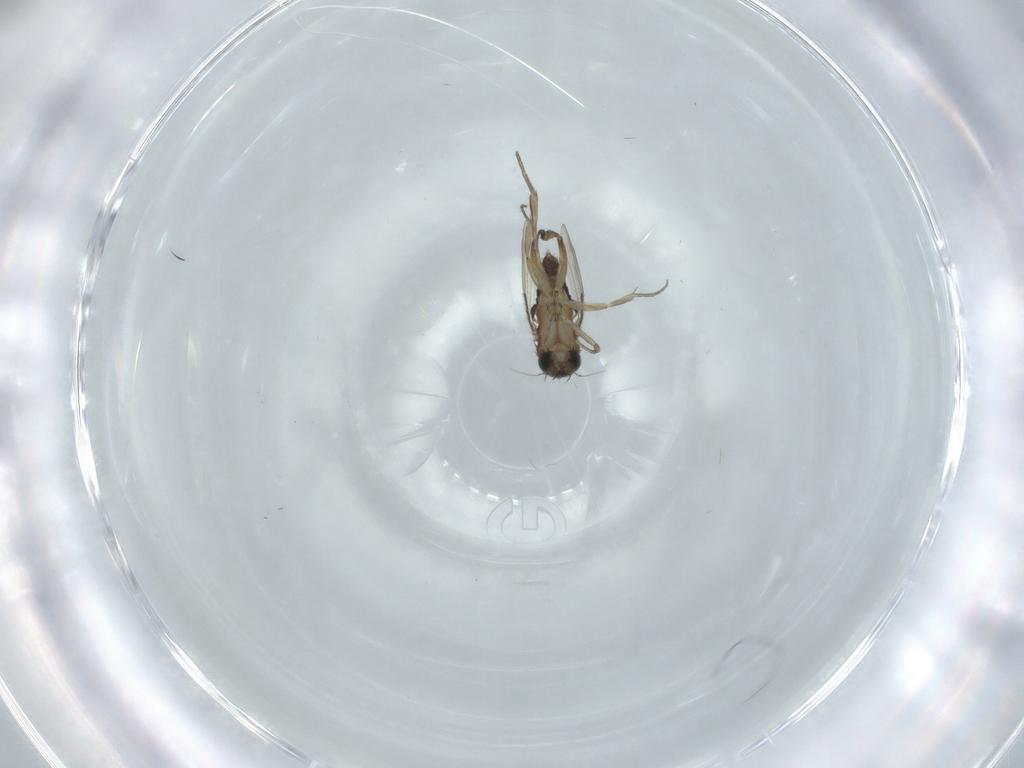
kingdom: Animalia
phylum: Arthropoda
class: Insecta
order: Diptera
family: Phoridae
